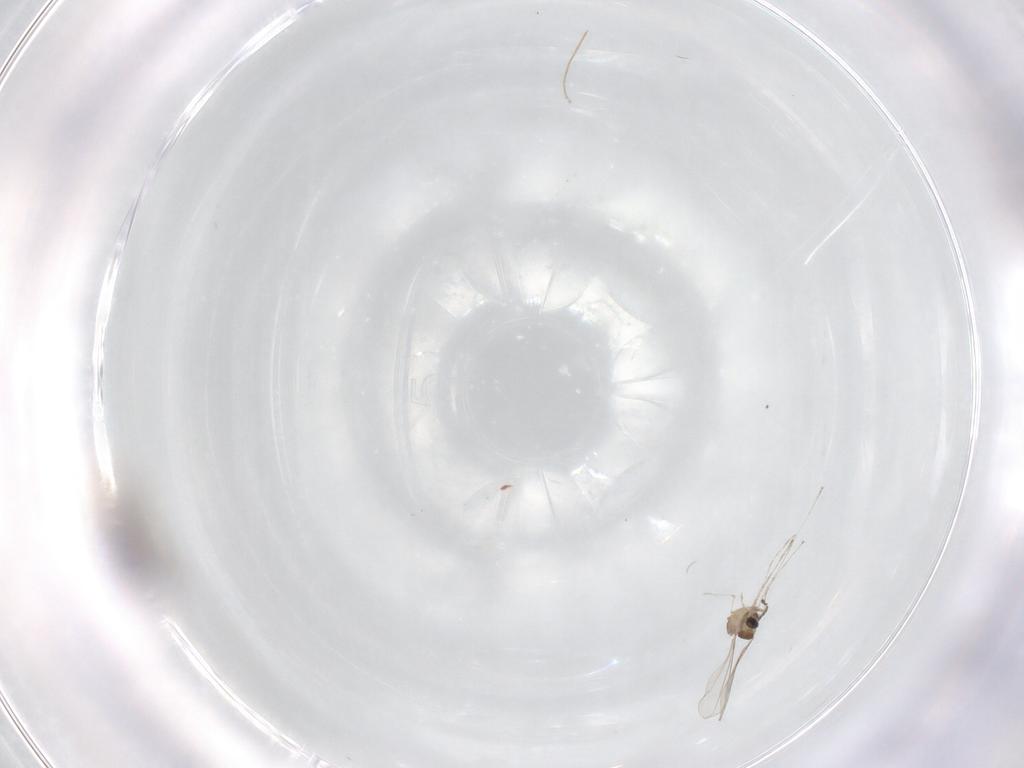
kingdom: Animalia
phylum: Arthropoda
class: Insecta
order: Diptera
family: Cecidomyiidae
